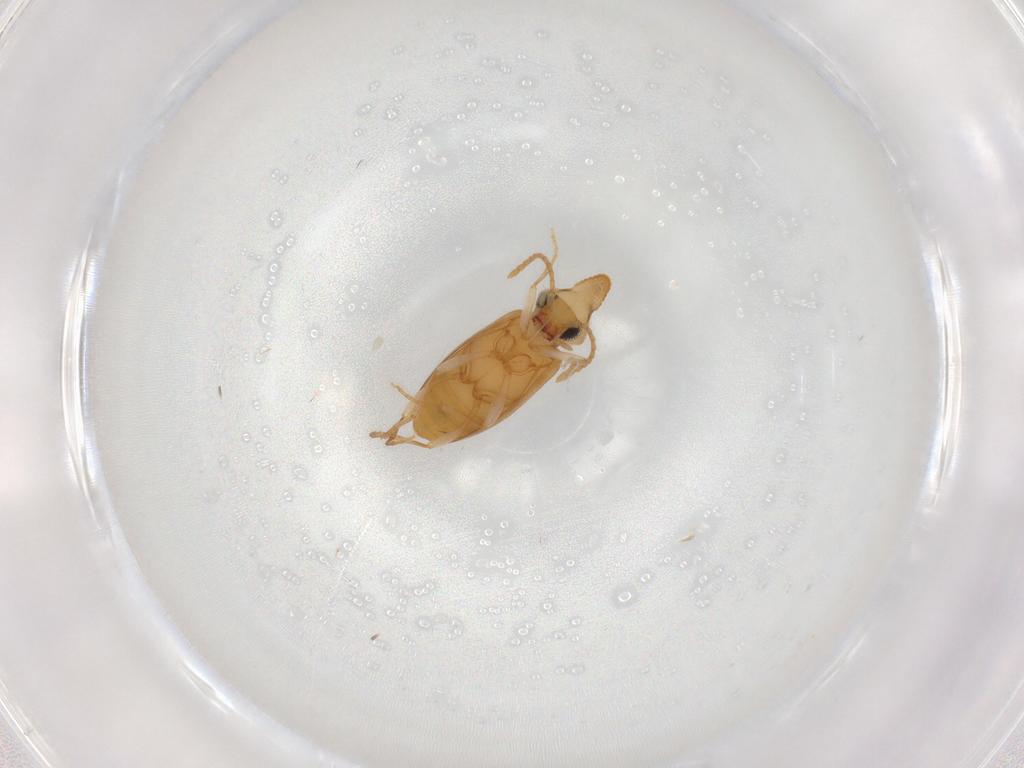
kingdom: Animalia
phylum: Arthropoda
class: Insecta
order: Coleoptera
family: Anthicidae
